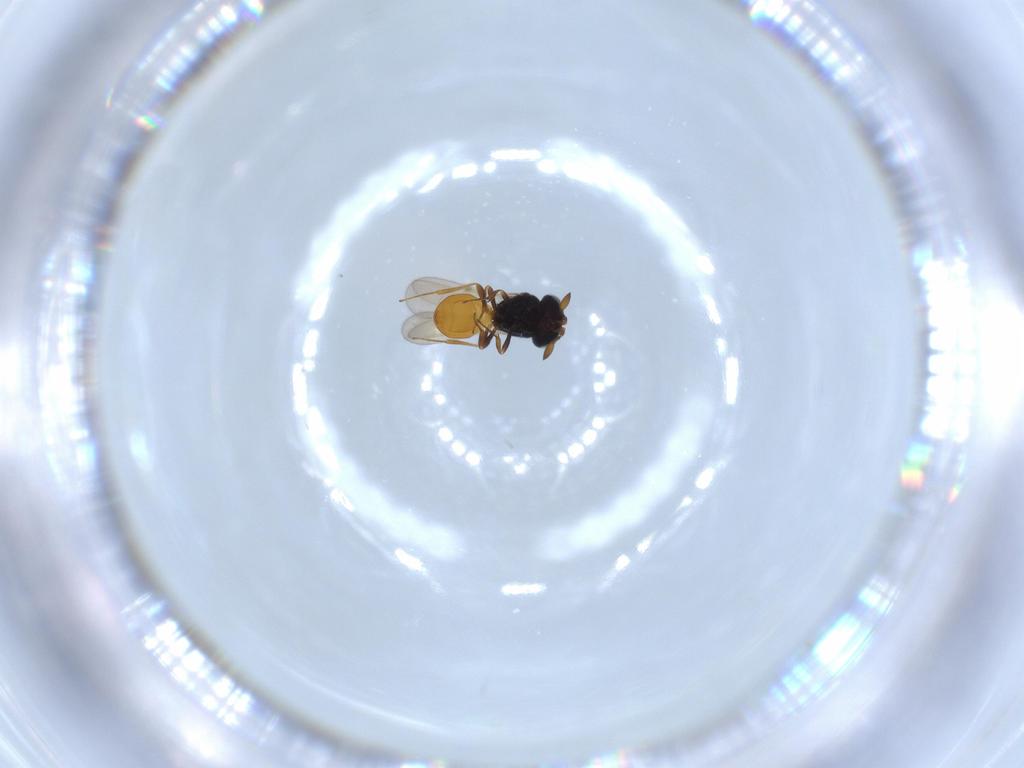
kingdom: Animalia
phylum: Arthropoda
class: Insecta
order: Hymenoptera
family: Scelionidae
